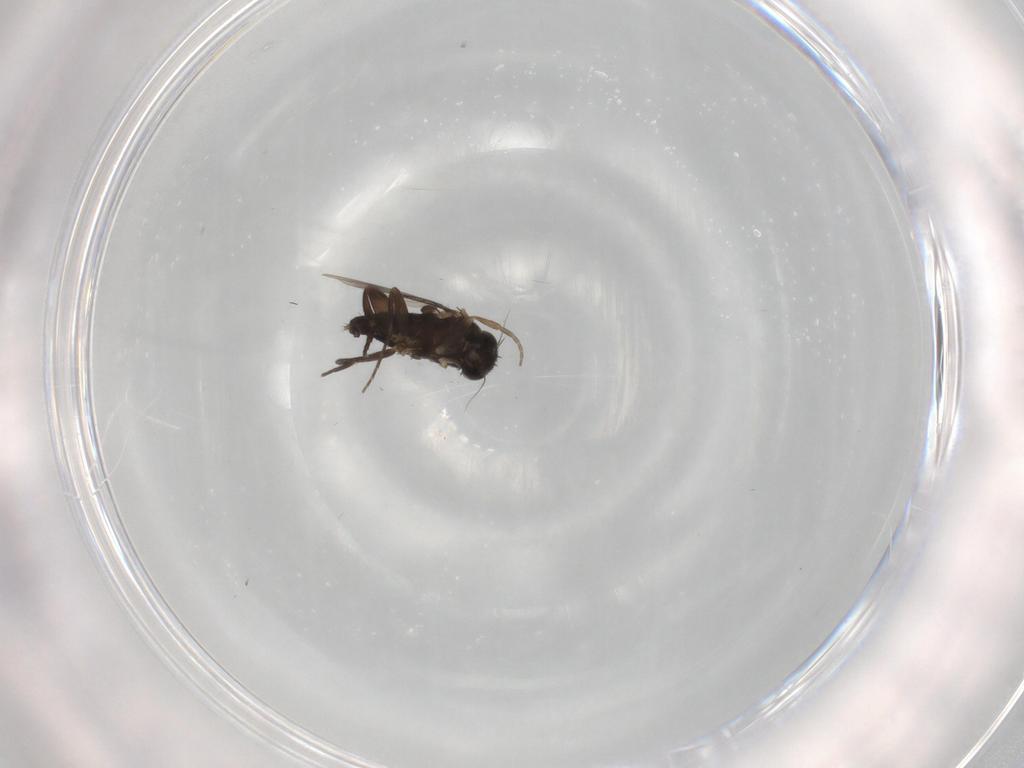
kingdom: Animalia
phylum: Arthropoda
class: Insecta
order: Diptera
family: Phoridae
